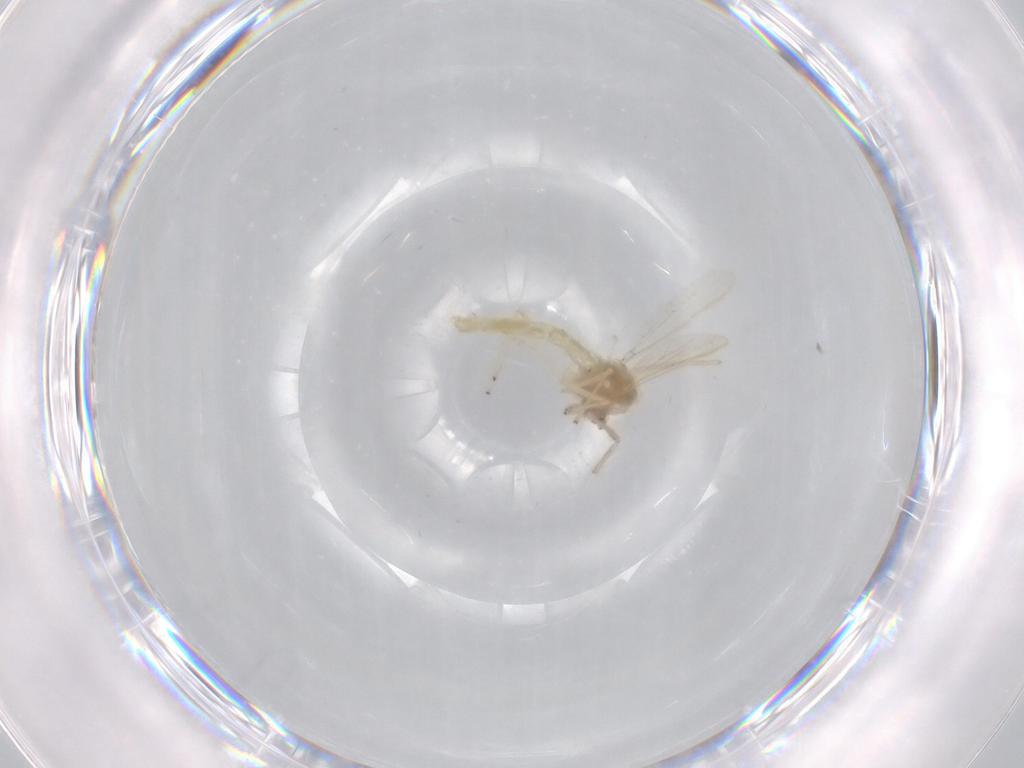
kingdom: Animalia
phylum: Arthropoda
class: Insecta
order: Diptera
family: Chironomidae
